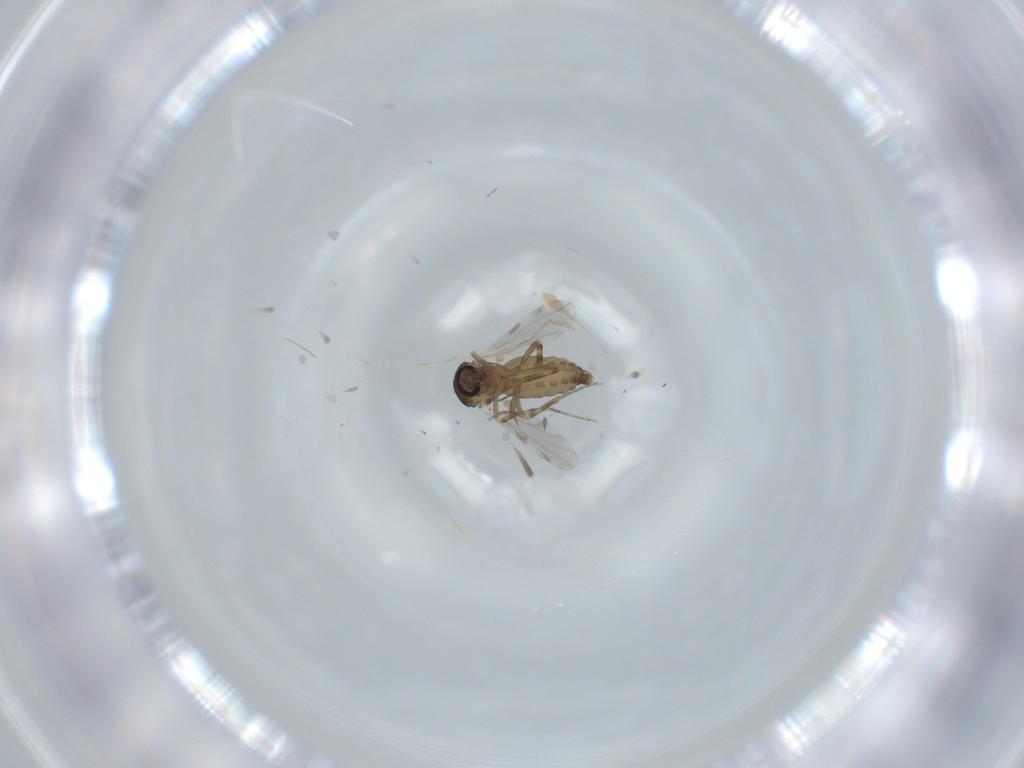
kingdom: Animalia
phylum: Arthropoda
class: Insecta
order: Diptera
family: Ceratopogonidae
